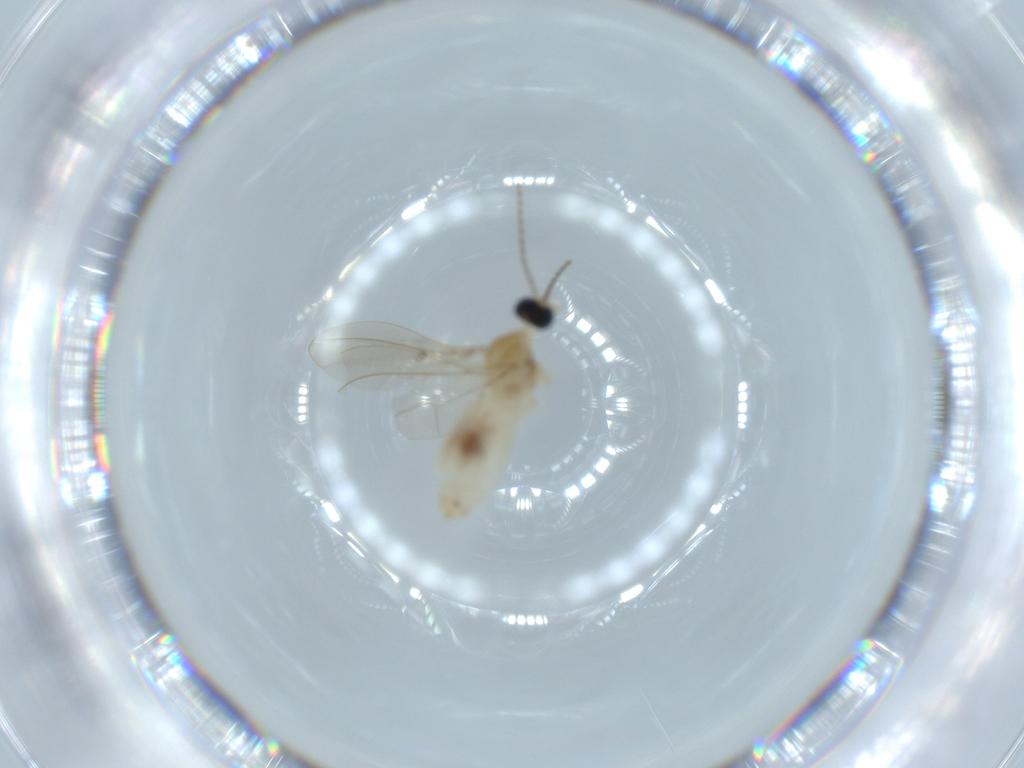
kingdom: Animalia
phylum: Arthropoda
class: Insecta
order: Diptera
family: Cecidomyiidae
